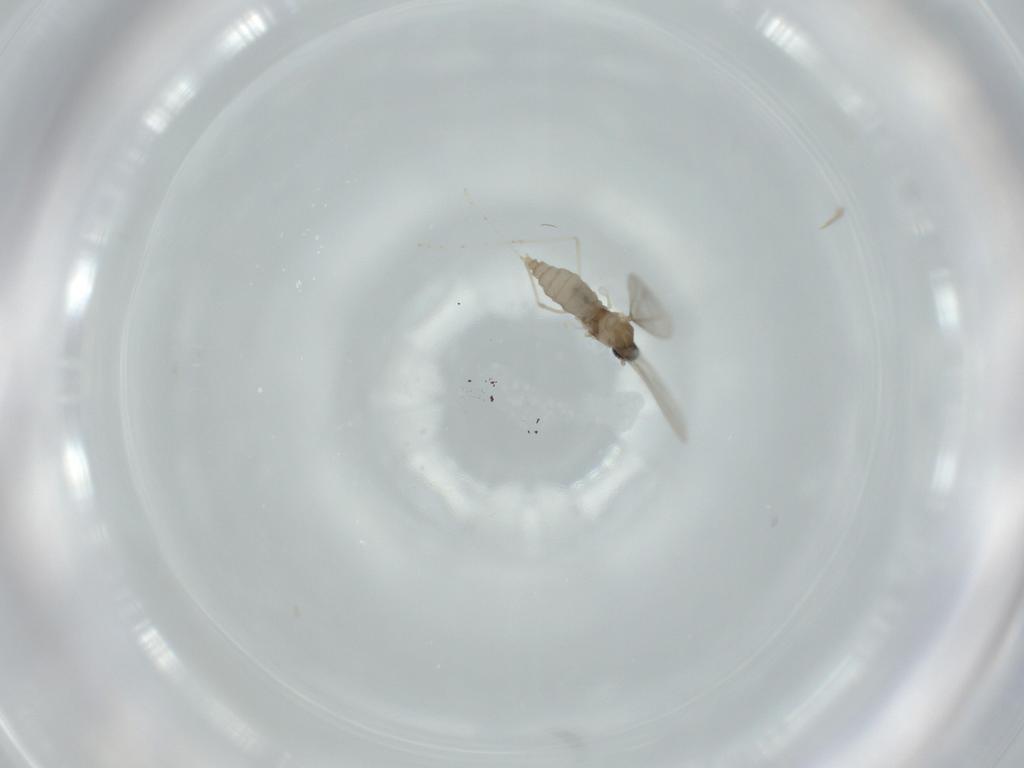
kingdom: Animalia
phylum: Arthropoda
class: Insecta
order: Diptera
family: Cecidomyiidae
